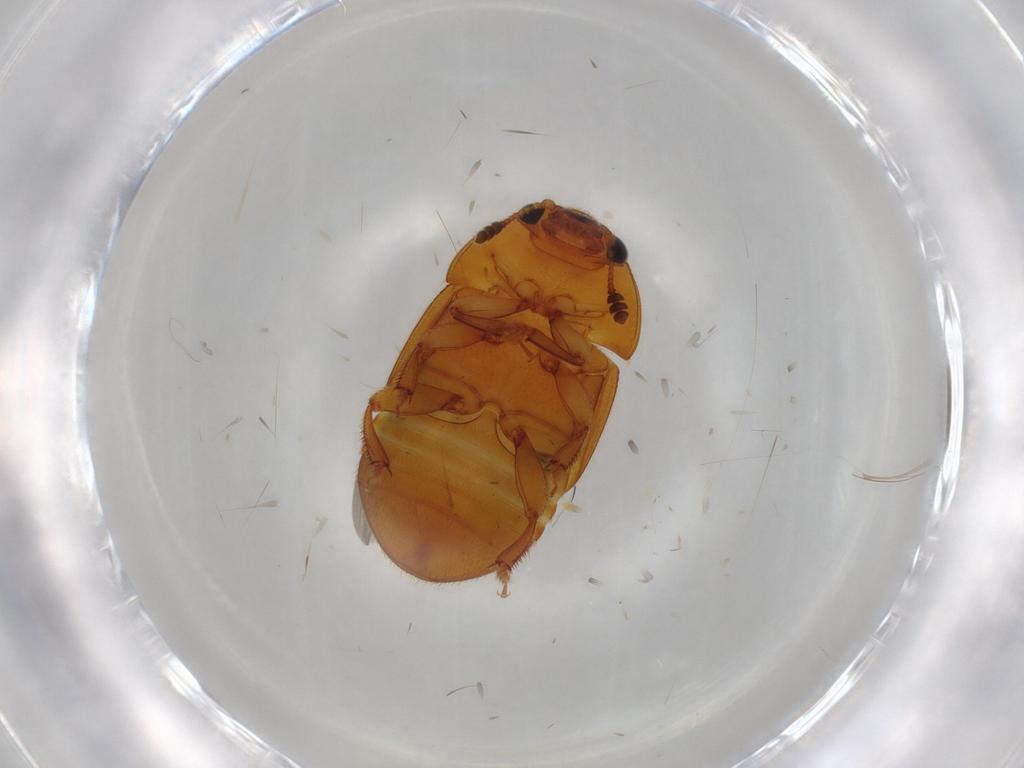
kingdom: Animalia
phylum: Arthropoda
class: Insecta
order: Coleoptera
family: Nitidulidae
